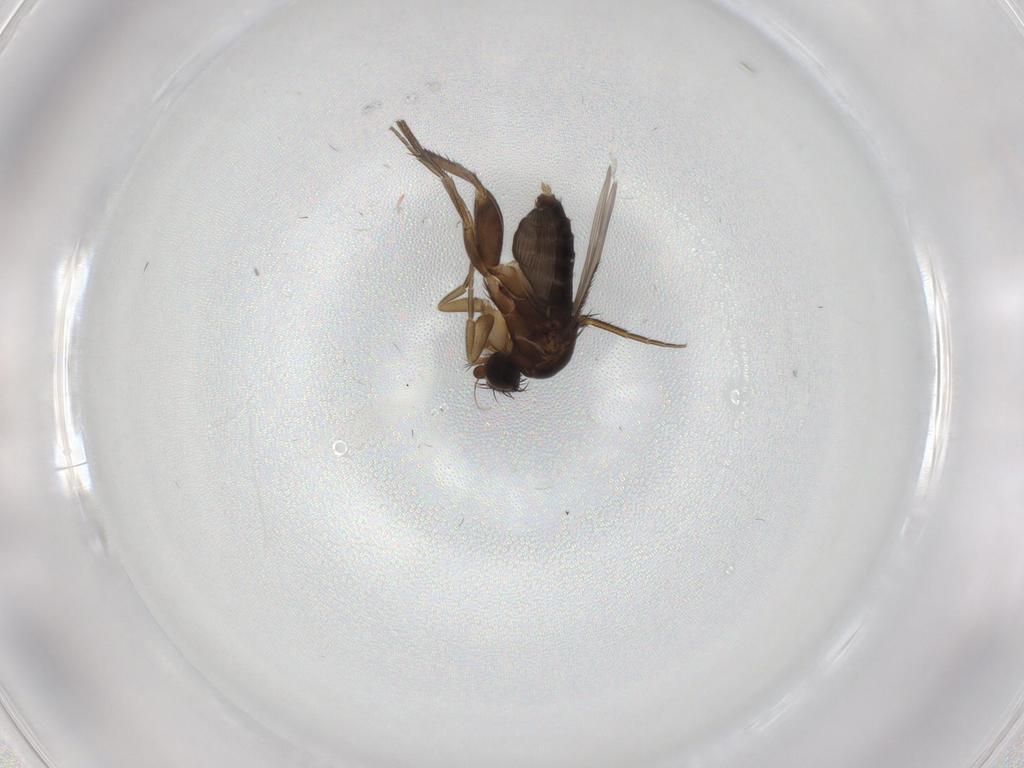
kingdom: Animalia
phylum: Arthropoda
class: Insecta
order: Diptera
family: Phoridae
